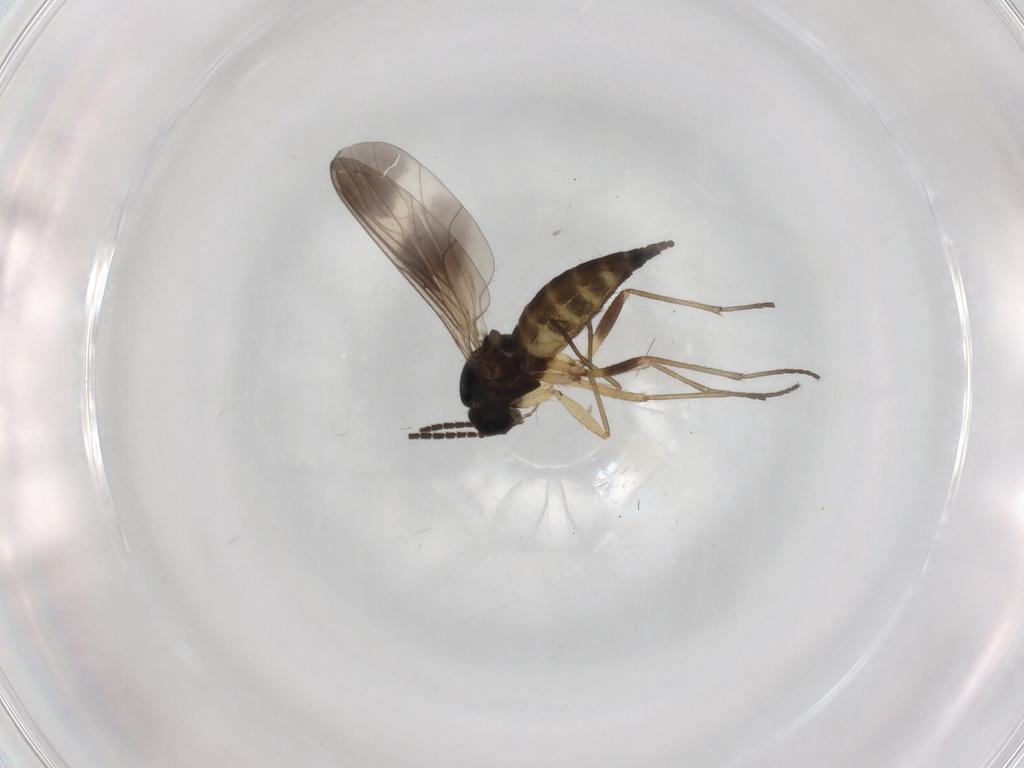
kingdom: Animalia
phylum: Arthropoda
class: Insecta
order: Diptera
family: Sciaridae
